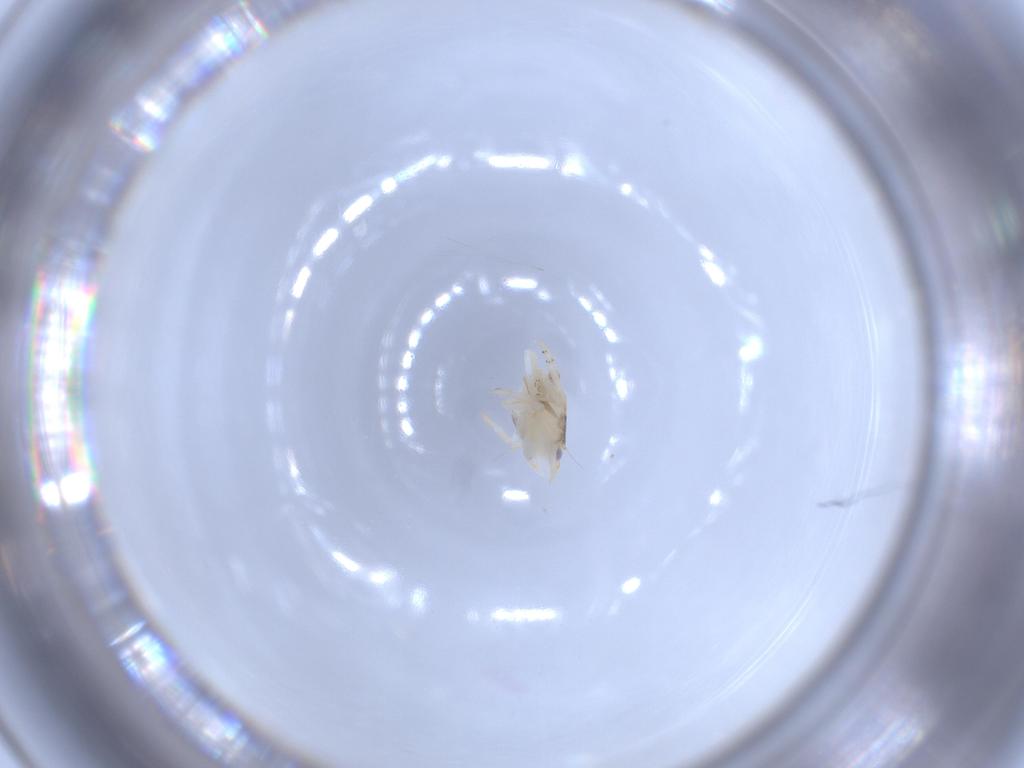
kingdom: Animalia
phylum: Arthropoda
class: Insecta
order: Hemiptera
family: Flatidae
